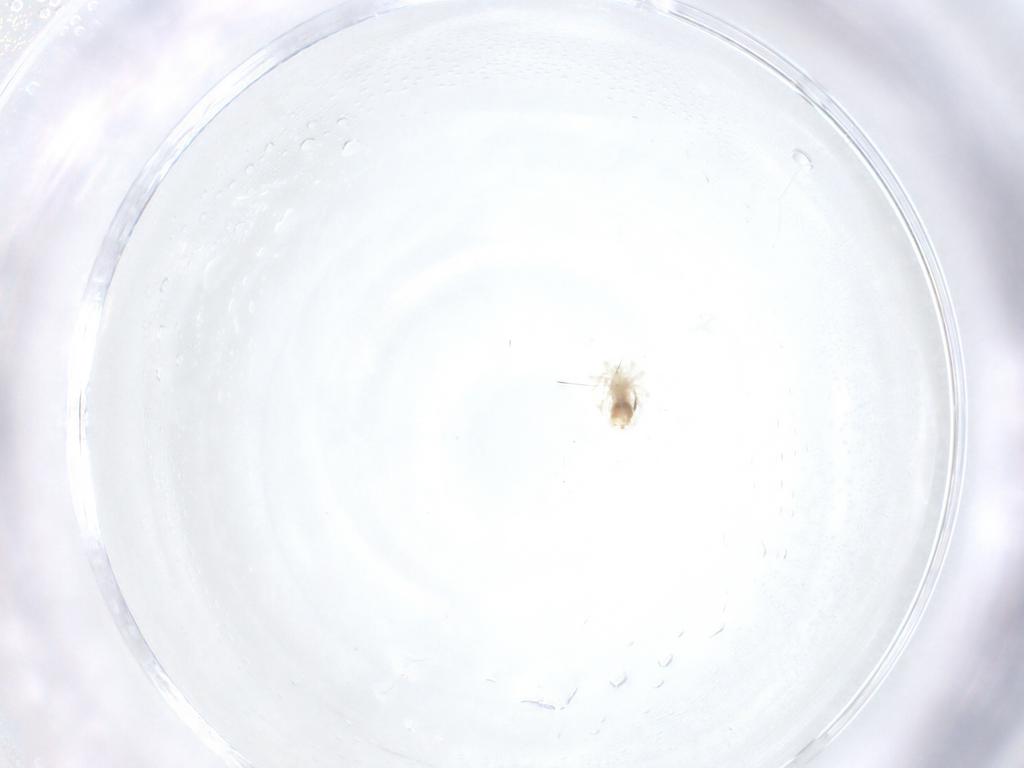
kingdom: Animalia
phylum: Arthropoda
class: Arachnida
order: Trombidiformes
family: Anystidae
